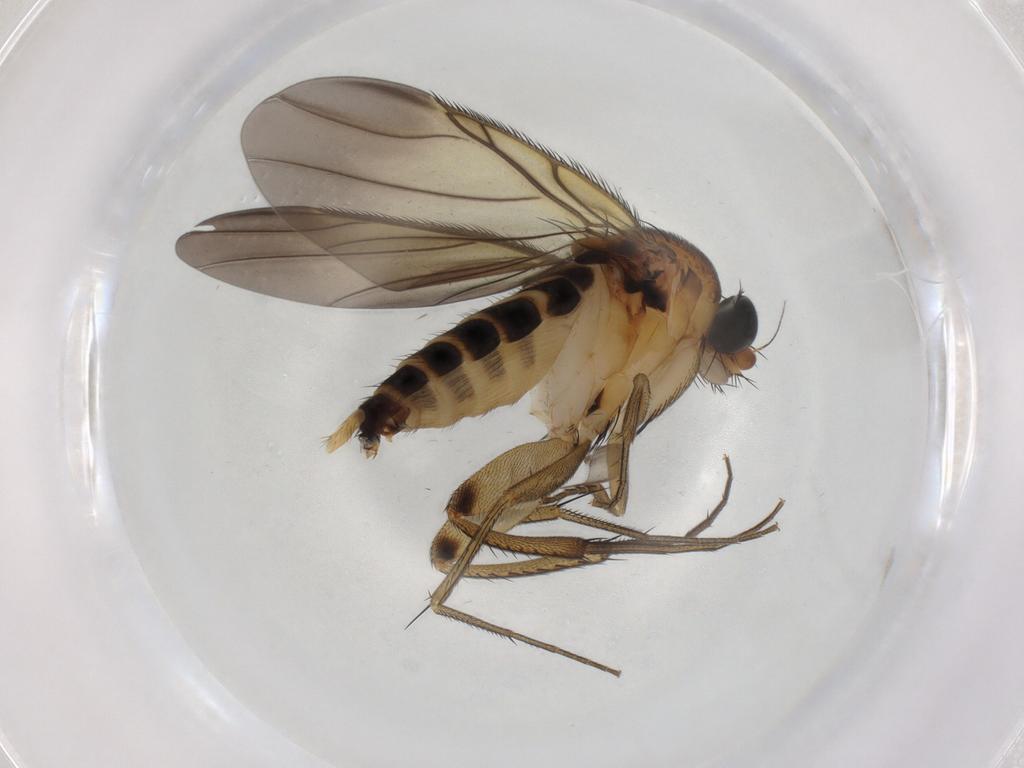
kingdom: Animalia
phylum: Arthropoda
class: Insecta
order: Diptera
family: Phoridae
